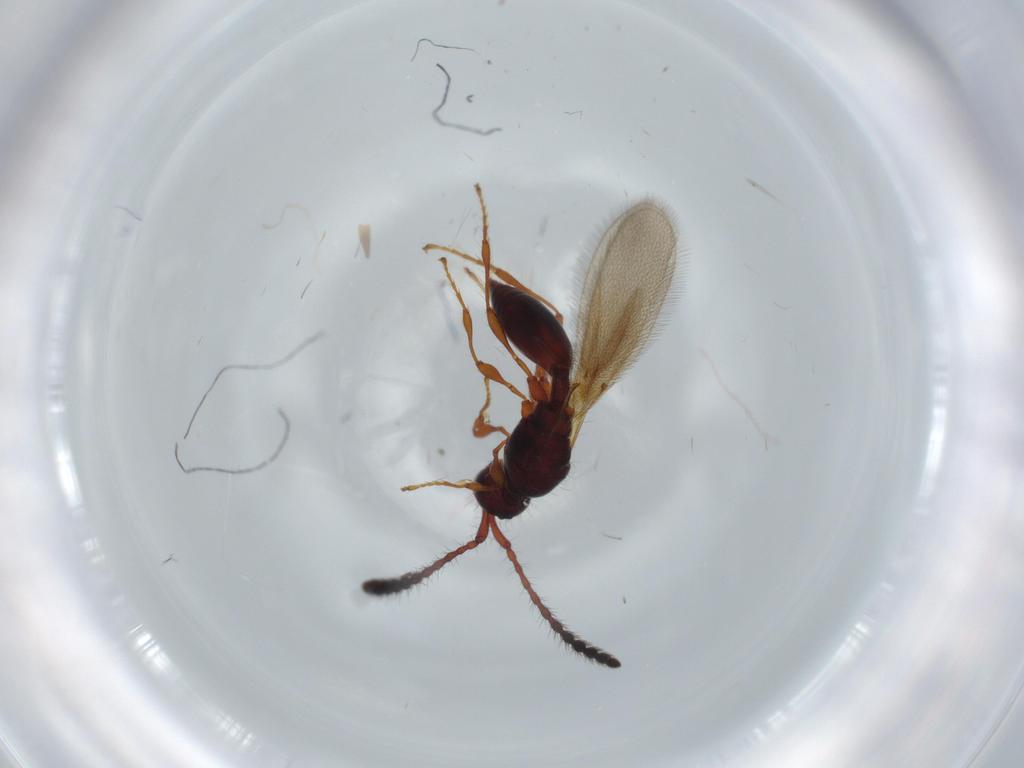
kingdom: Animalia
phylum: Arthropoda
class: Insecta
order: Hymenoptera
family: Diapriidae
